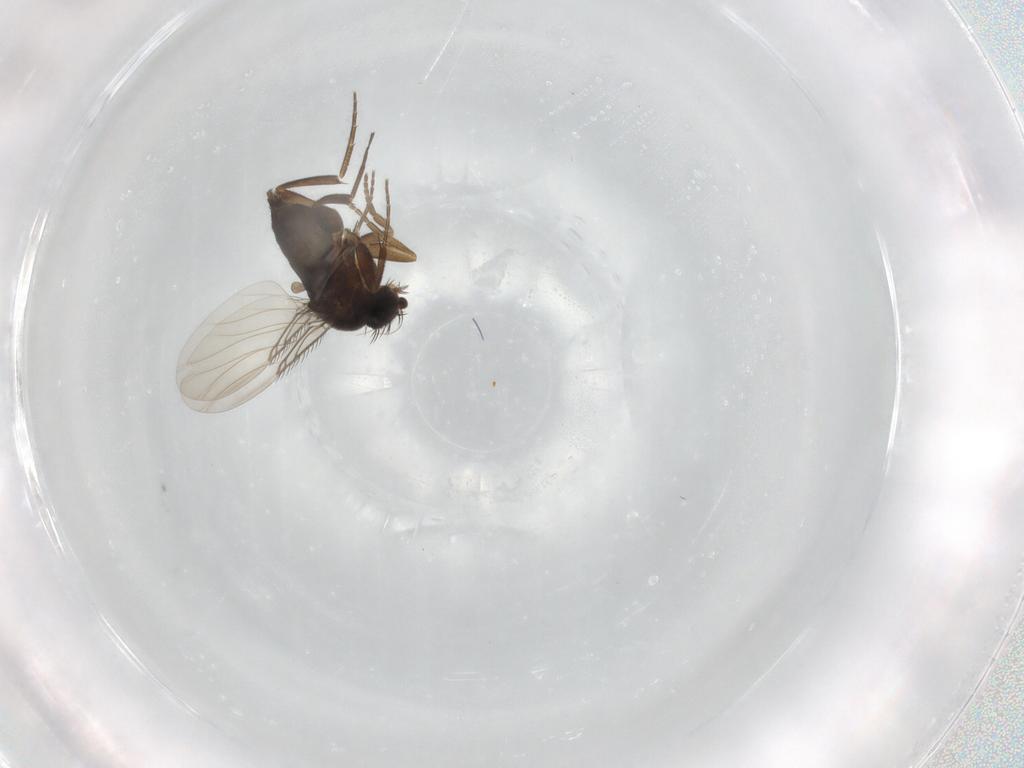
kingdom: Animalia
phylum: Arthropoda
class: Insecta
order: Diptera
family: Phoridae
